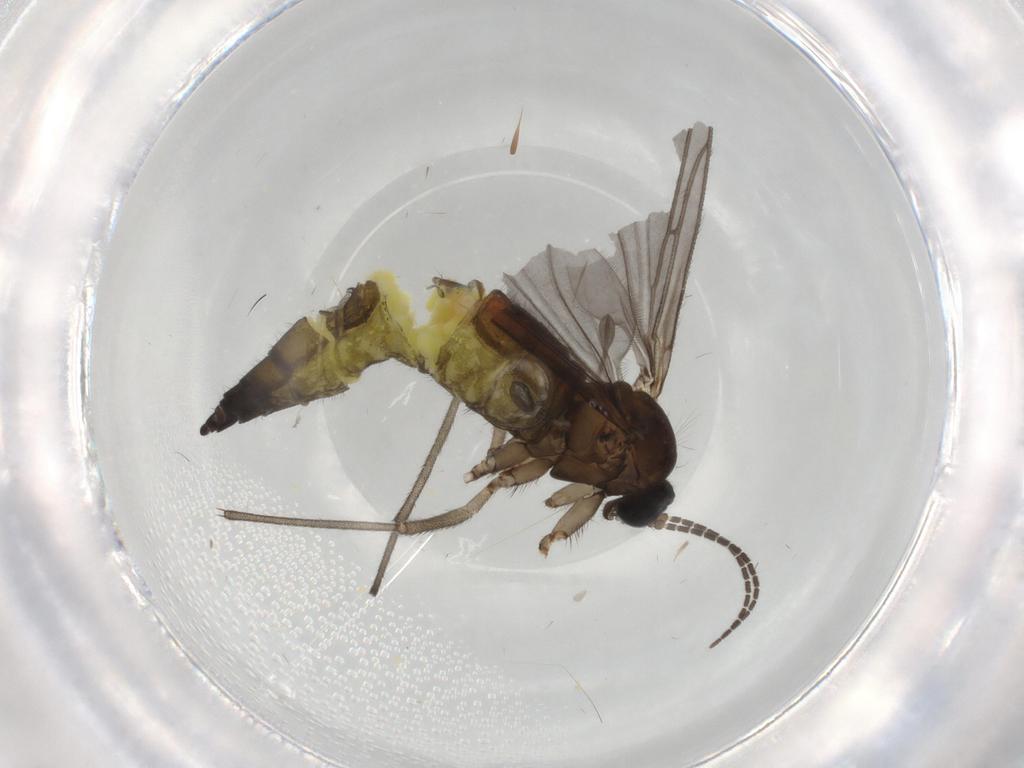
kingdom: Animalia
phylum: Arthropoda
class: Insecta
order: Diptera
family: Sciaridae
